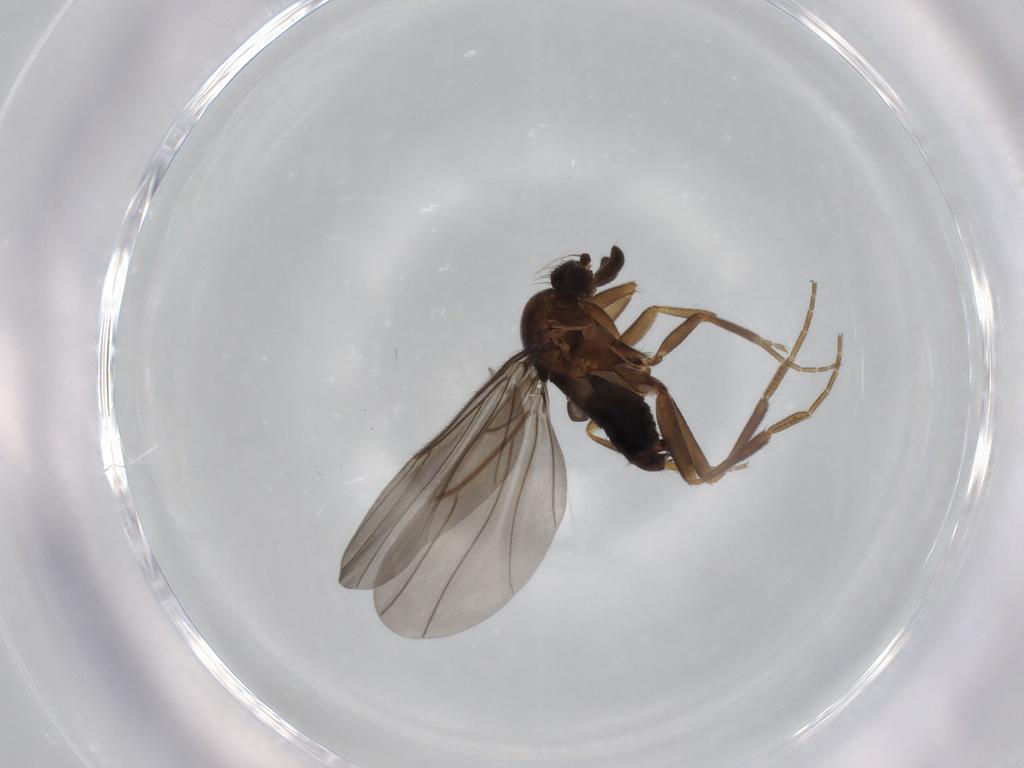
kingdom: Animalia
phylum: Arthropoda
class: Insecta
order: Diptera
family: Phoridae
